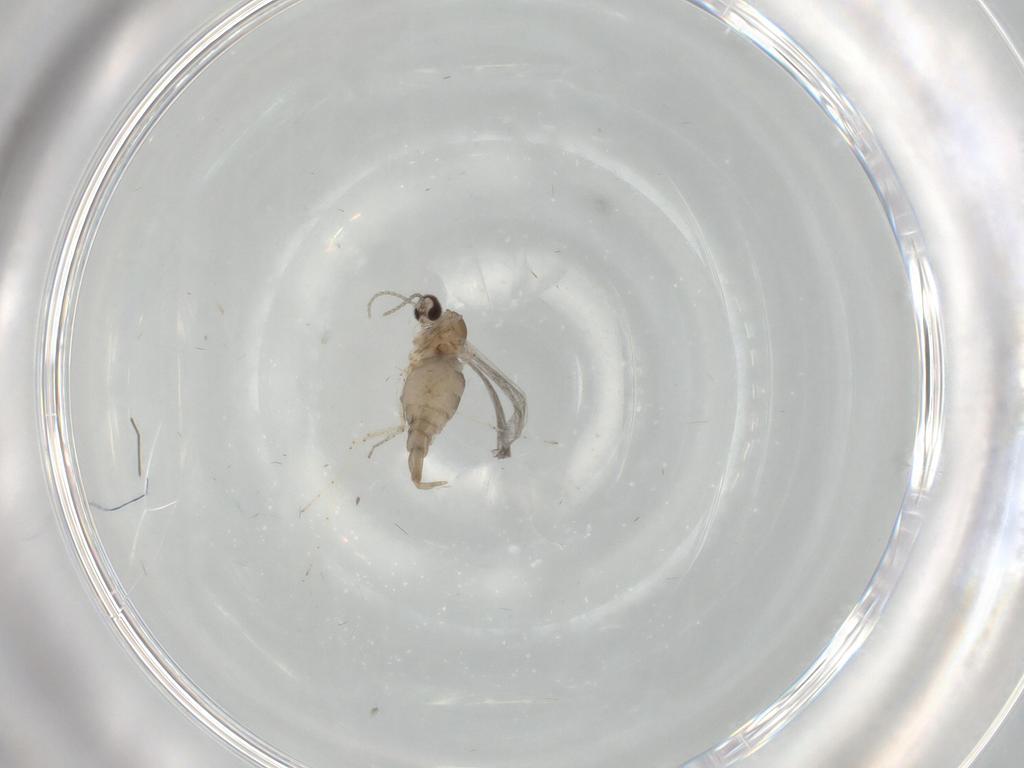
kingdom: Animalia
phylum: Arthropoda
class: Insecta
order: Diptera
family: Cecidomyiidae
